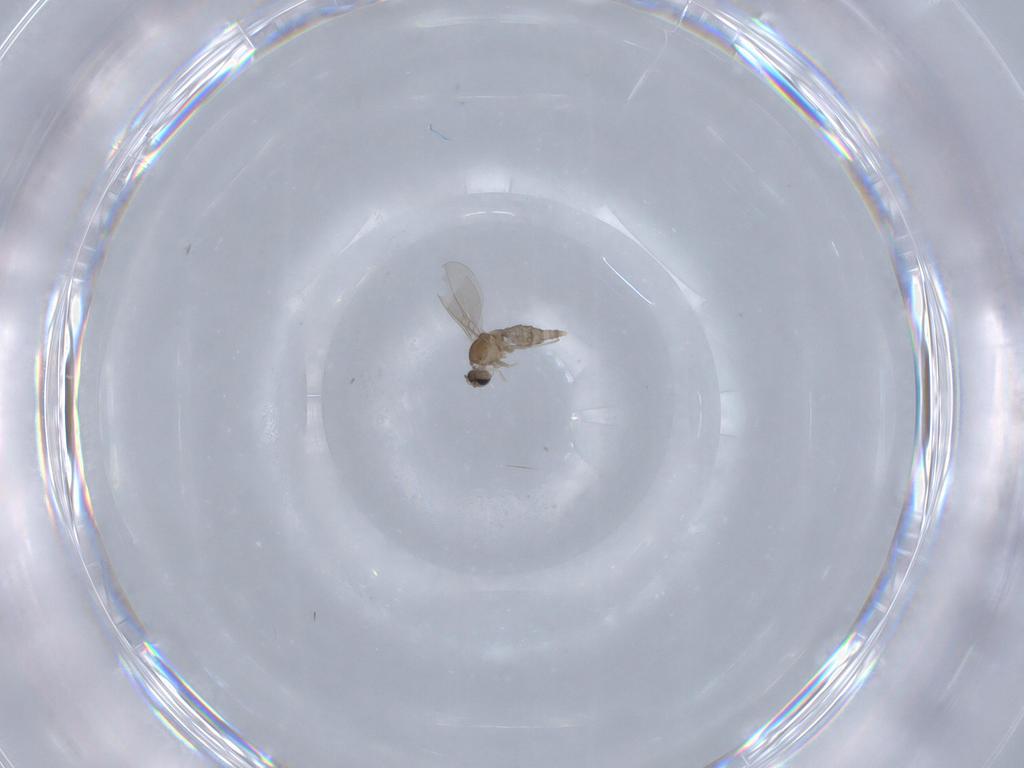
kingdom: Animalia
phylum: Arthropoda
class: Insecta
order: Diptera
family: Cecidomyiidae
